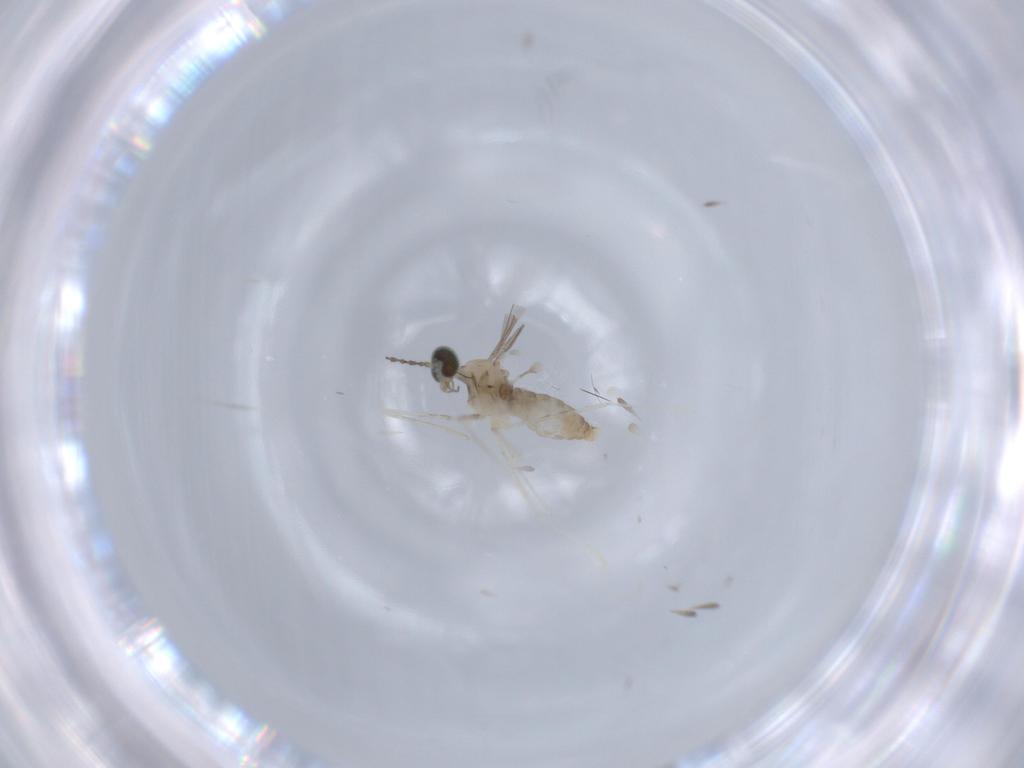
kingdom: Animalia
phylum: Arthropoda
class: Insecta
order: Diptera
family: Cecidomyiidae
